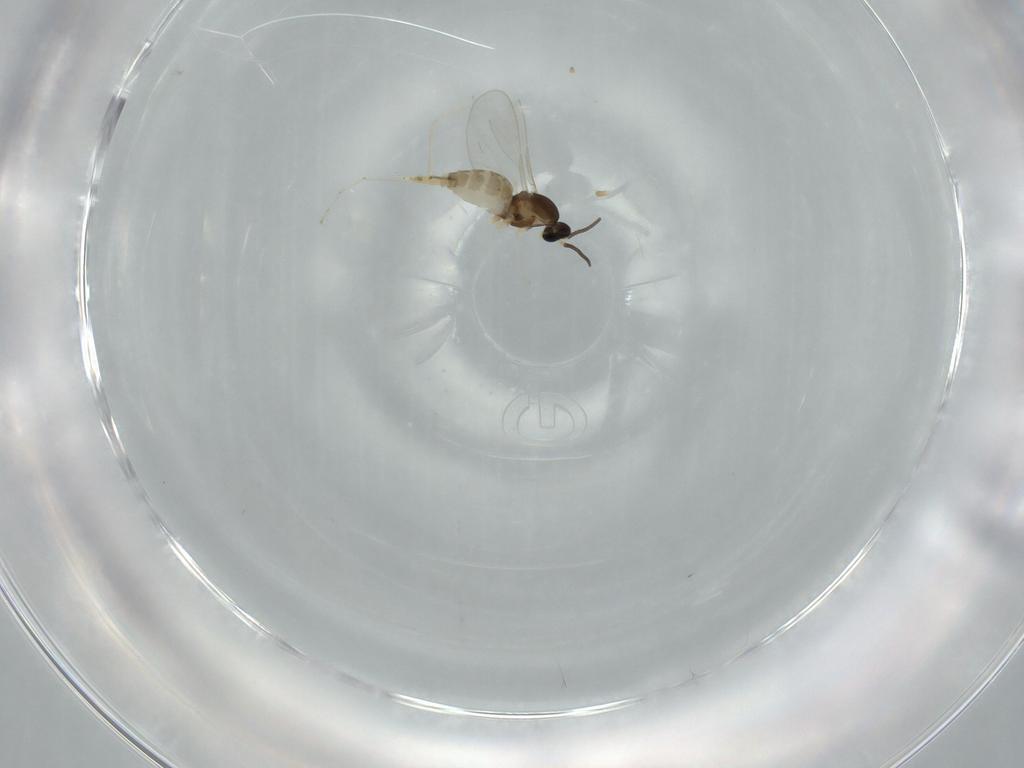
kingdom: Animalia
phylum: Arthropoda
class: Insecta
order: Diptera
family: Cecidomyiidae
